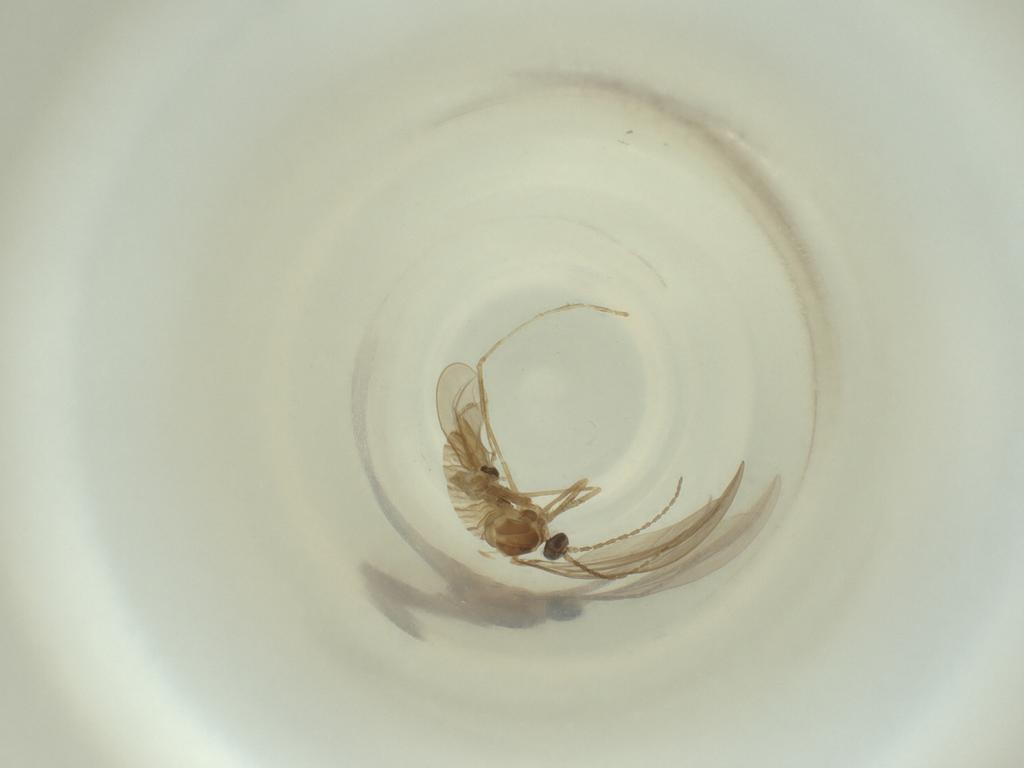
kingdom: Animalia
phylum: Arthropoda
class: Insecta
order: Diptera
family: Cecidomyiidae
